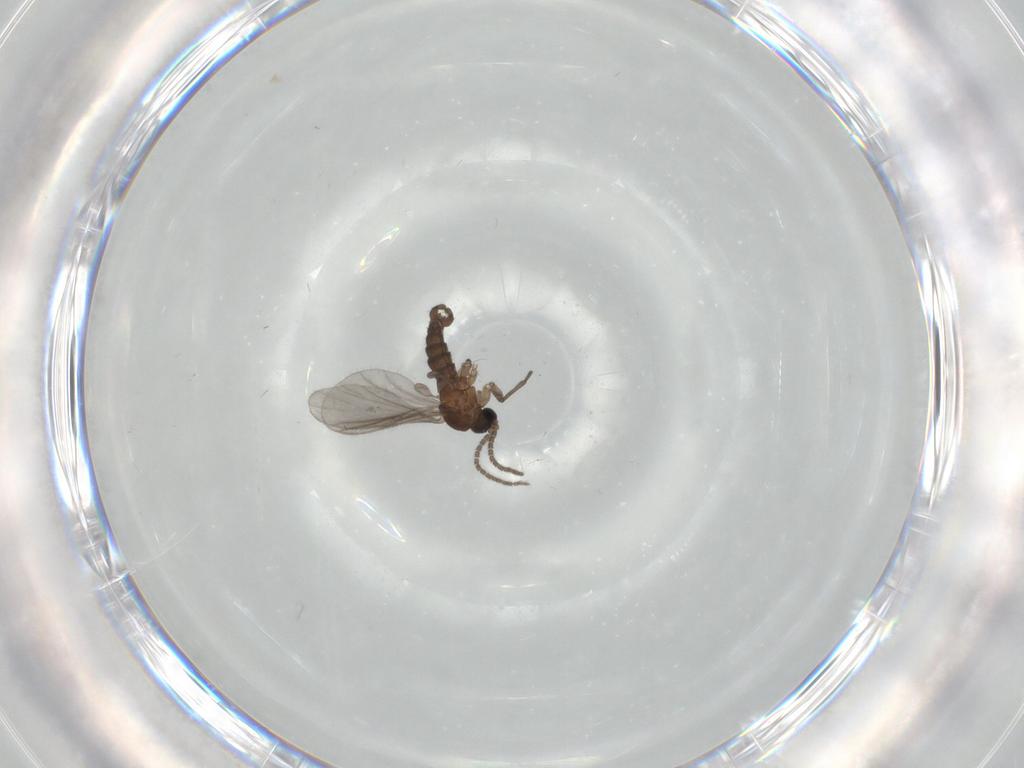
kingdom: Animalia
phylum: Arthropoda
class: Insecta
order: Diptera
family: Sciaridae
